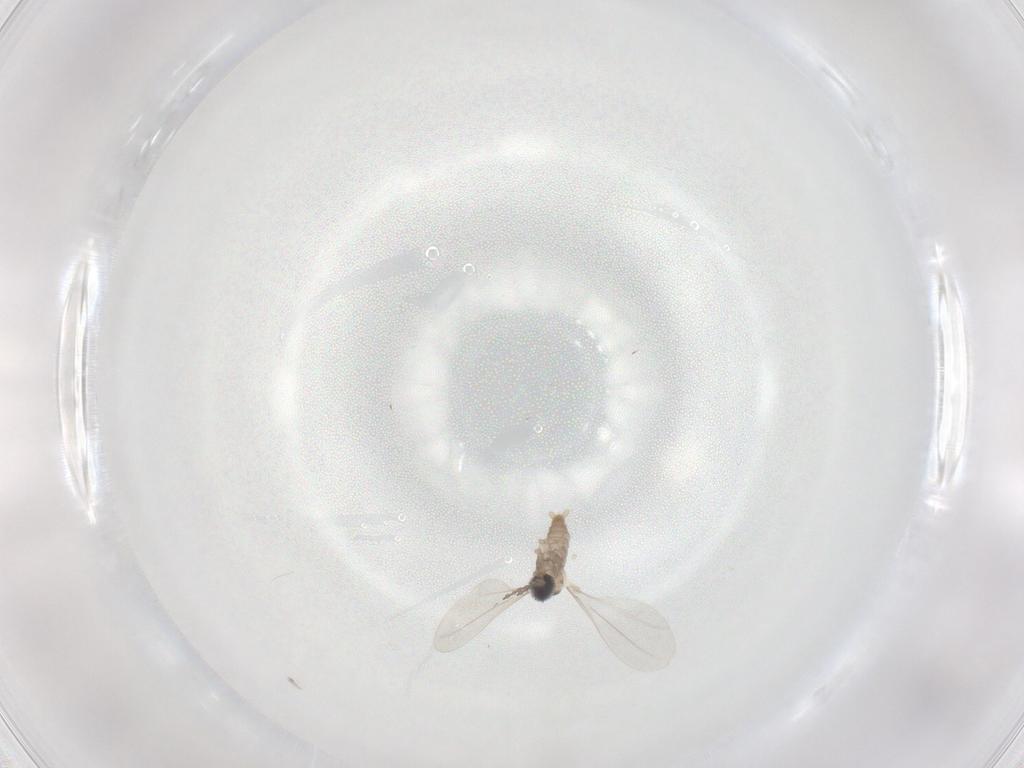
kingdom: Animalia
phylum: Arthropoda
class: Insecta
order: Diptera
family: Cecidomyiidae
